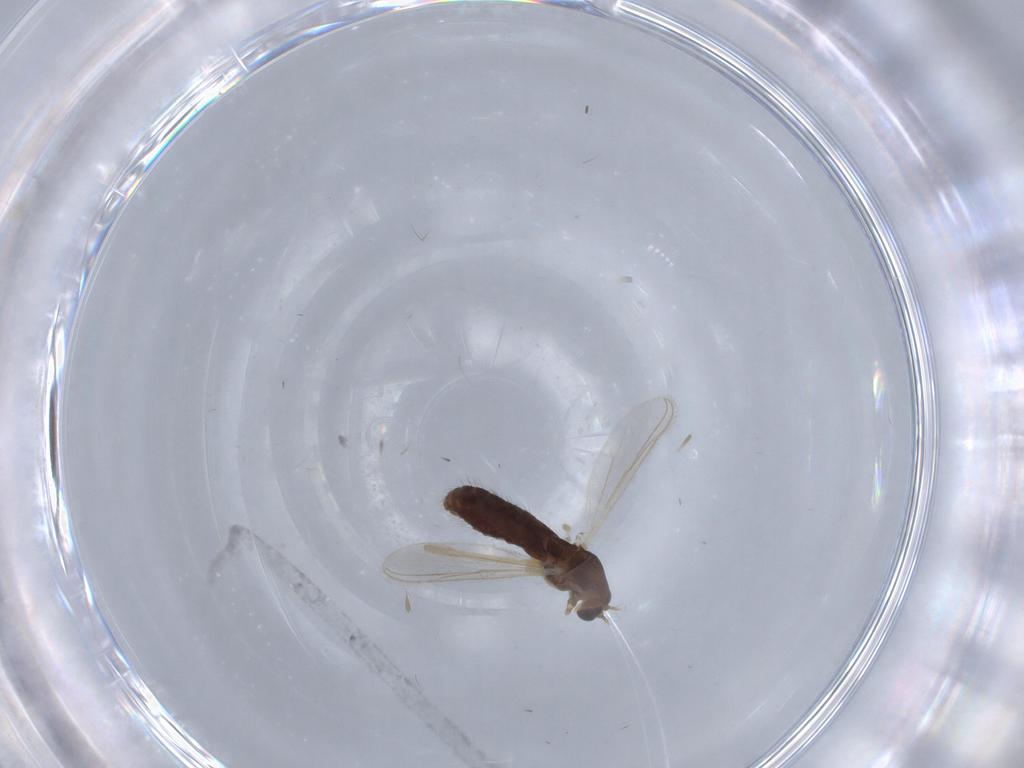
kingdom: Animalia
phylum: Arthropoda
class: Insecta
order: Diptera
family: Chironomidae
